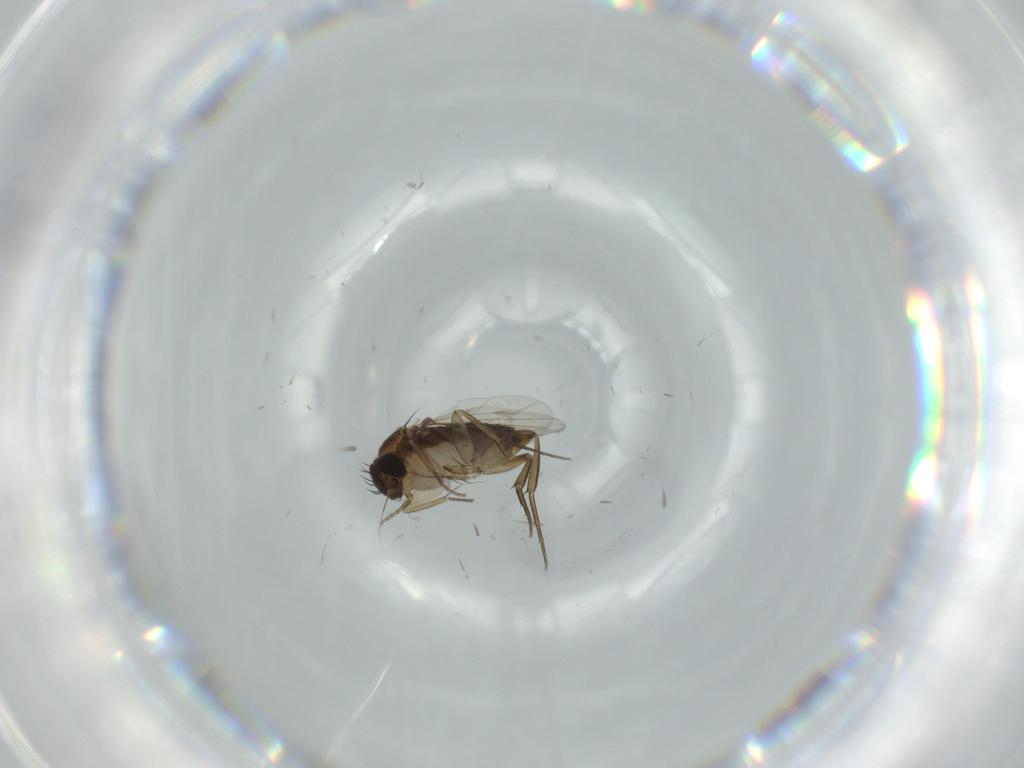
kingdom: Animalia
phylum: Arthropoda
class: Insecta
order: Diptera
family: Phoridae
